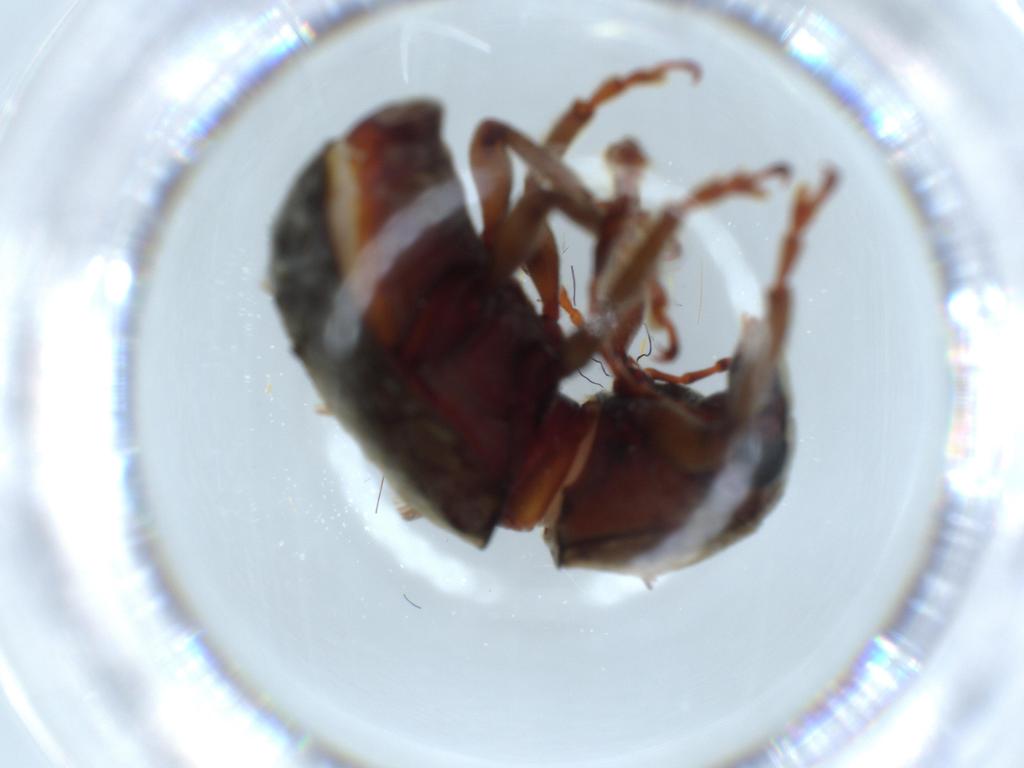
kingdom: Animalia
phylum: Arthropoda
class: Insecta
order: Coleoptera
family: Anthribidae
